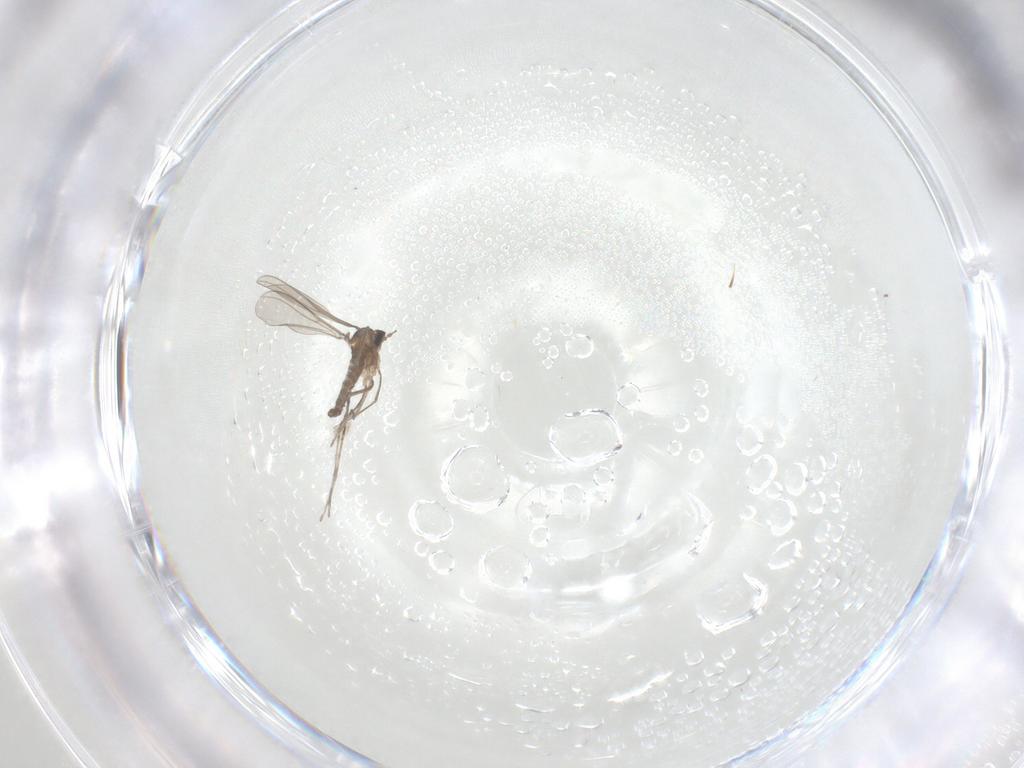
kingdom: Animalia
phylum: Arthropoda
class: Insecta
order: Diptera
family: Cecidomyiidae
